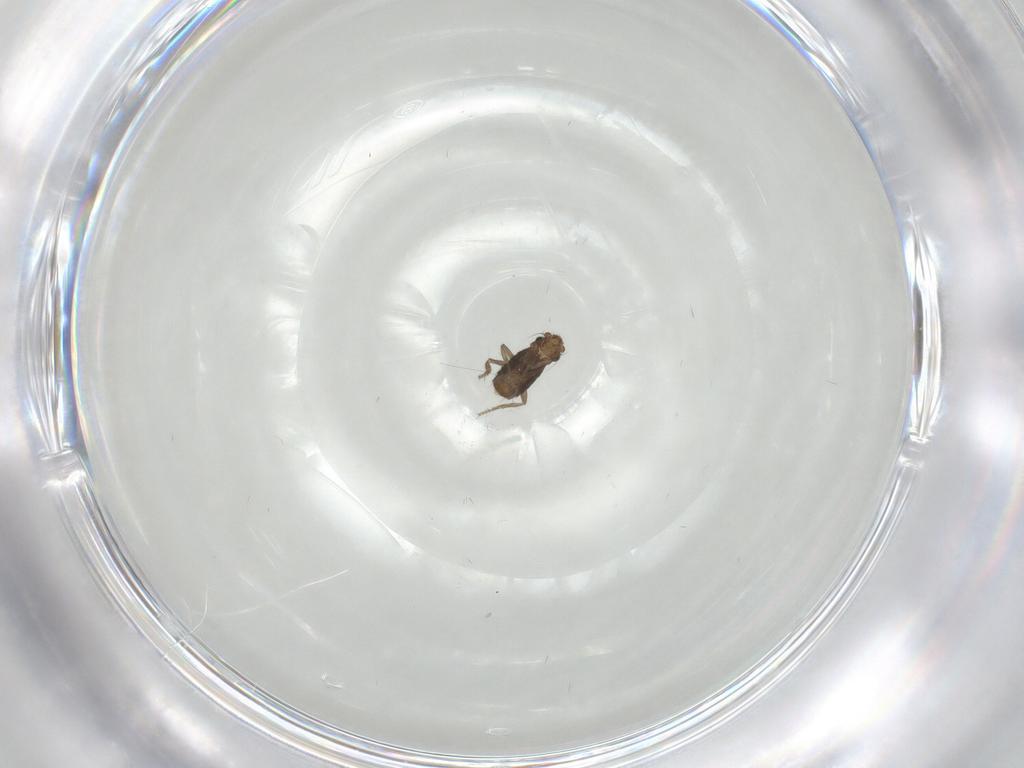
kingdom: Animalia
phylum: Arthropoda
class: Insecta
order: Diptera
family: Phoridae
